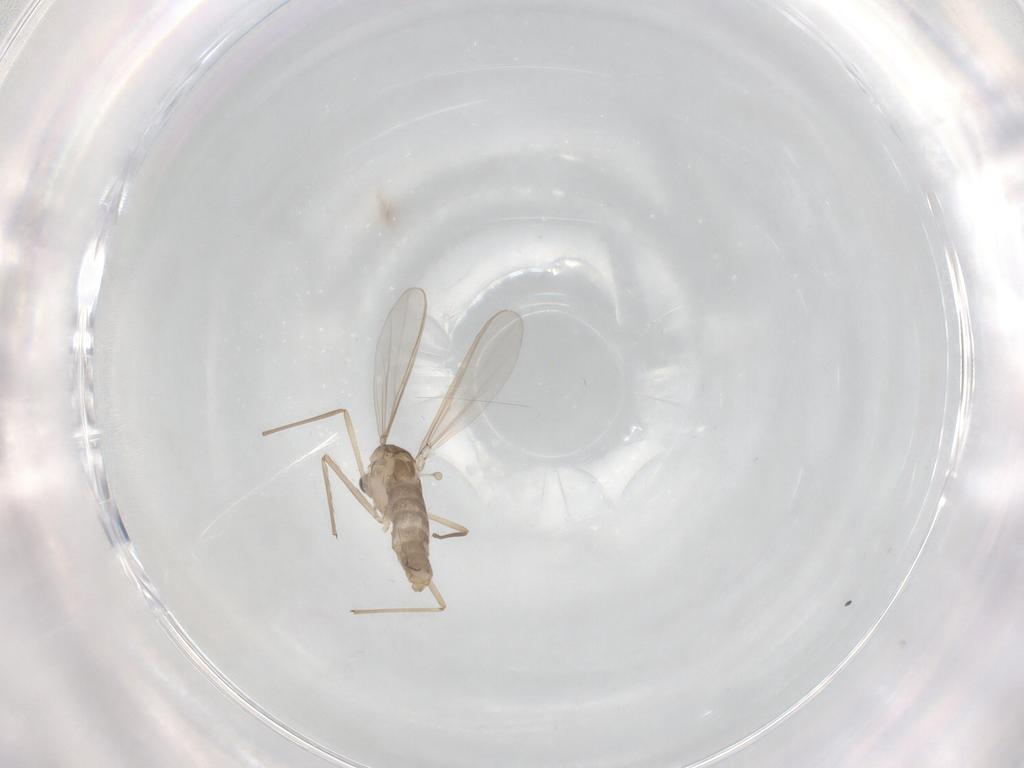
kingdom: Animalia
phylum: Arthropoda
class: Insecta
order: Diptera
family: Chironomidae
